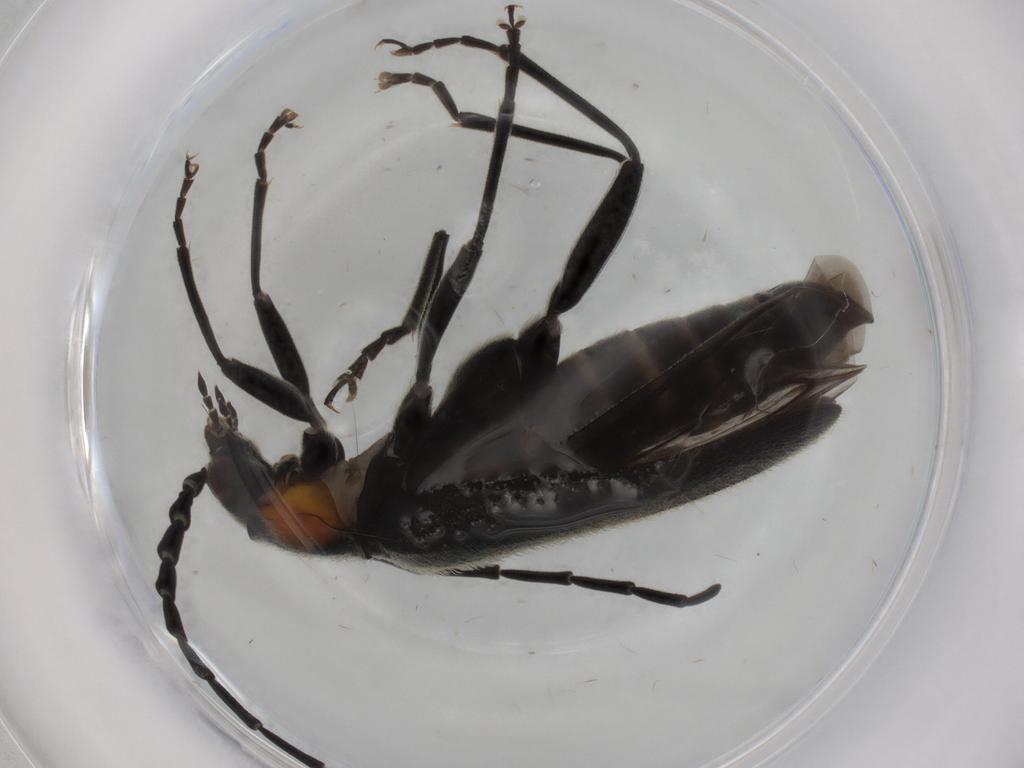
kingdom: Animalia
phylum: Arthropoda
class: Insecta
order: Coleoptera
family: Cantharidae
